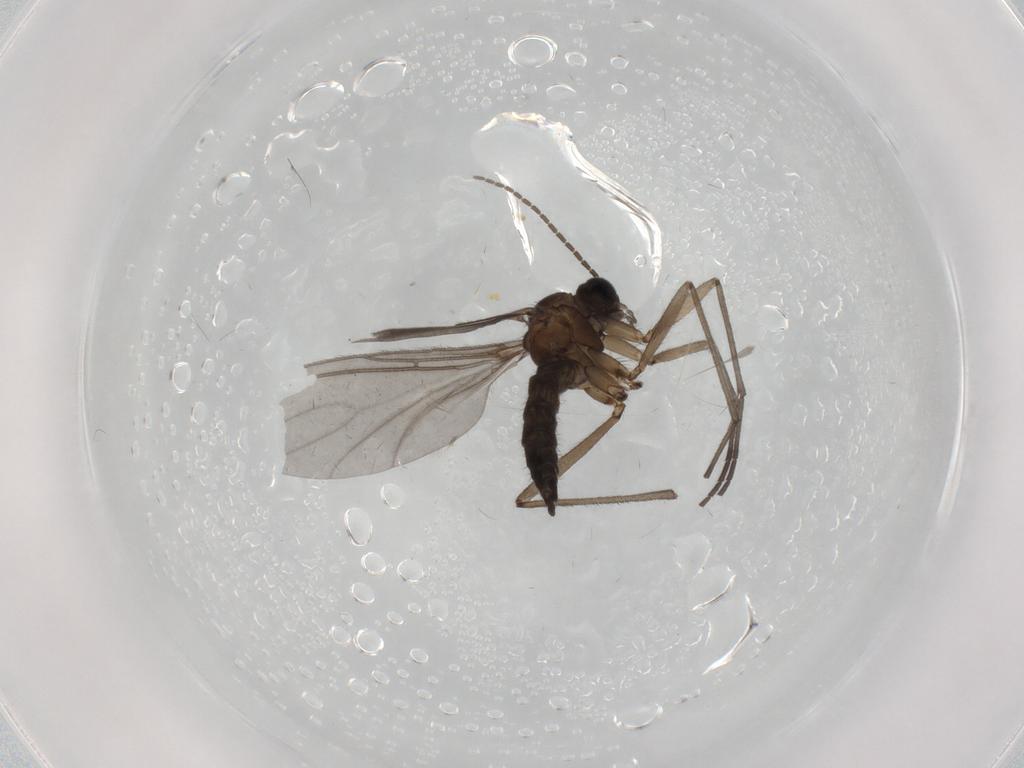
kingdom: Animalia
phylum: Arthropoda
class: Insecta
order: Diptera
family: Sciaridae
